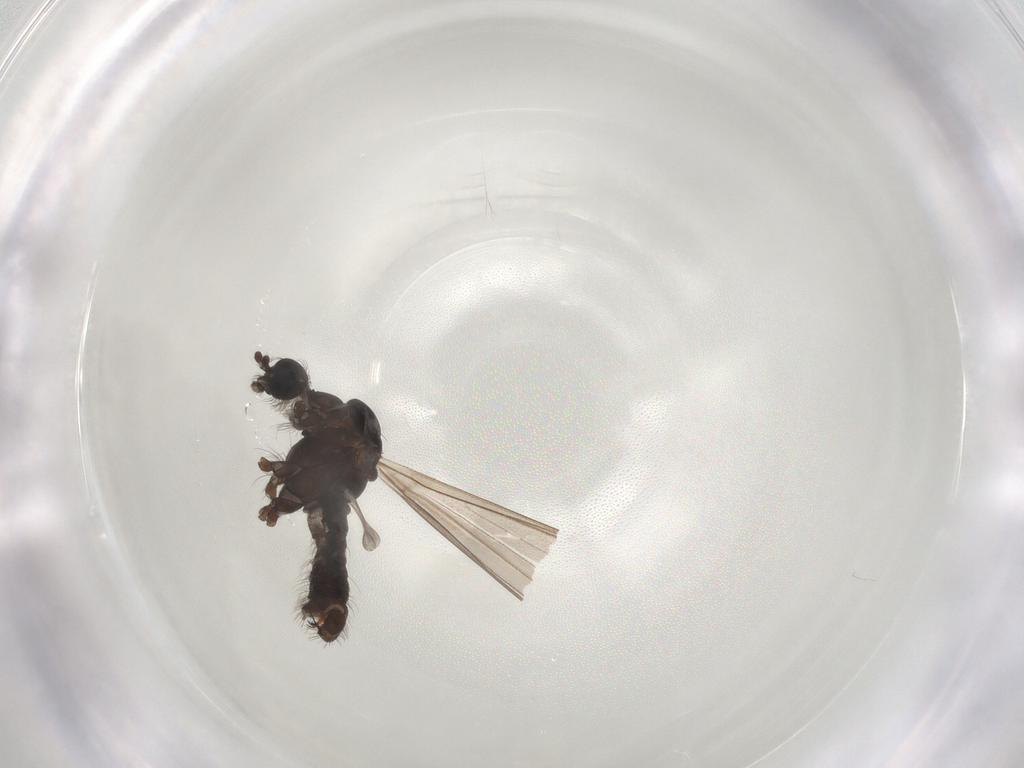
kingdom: Animalia
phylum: Arthropoda
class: Insecta
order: Diptera
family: Limoniidae
